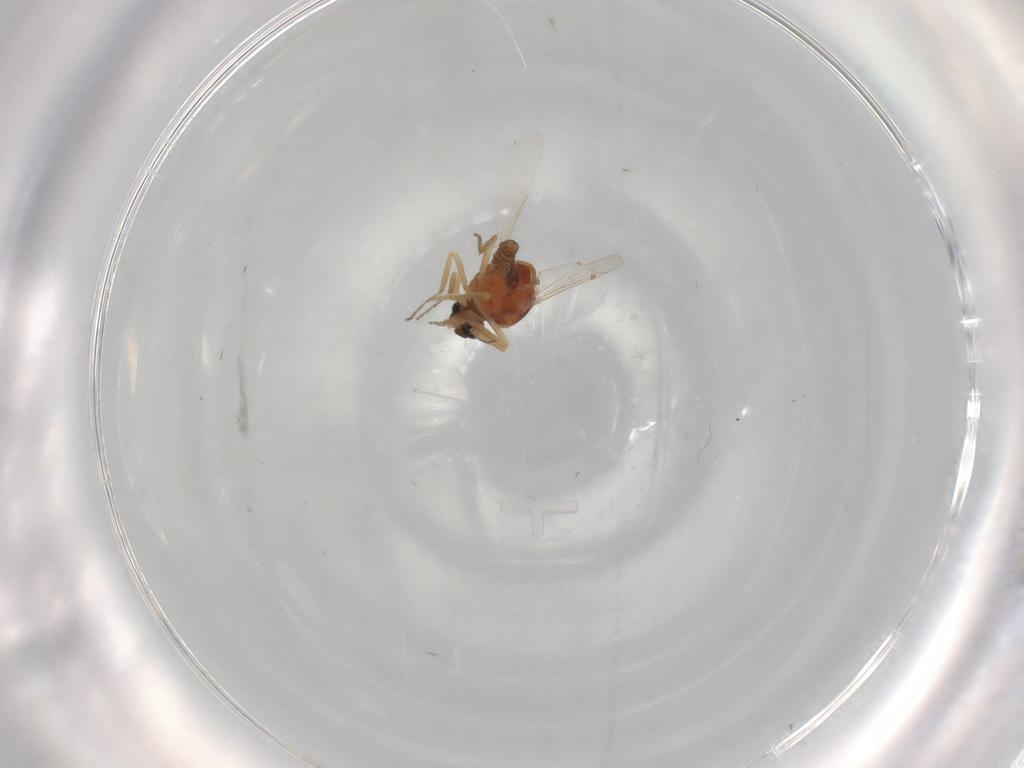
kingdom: Animalia
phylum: Arthropoda
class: Insecta
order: Diptera
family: Ceratopogonidae
